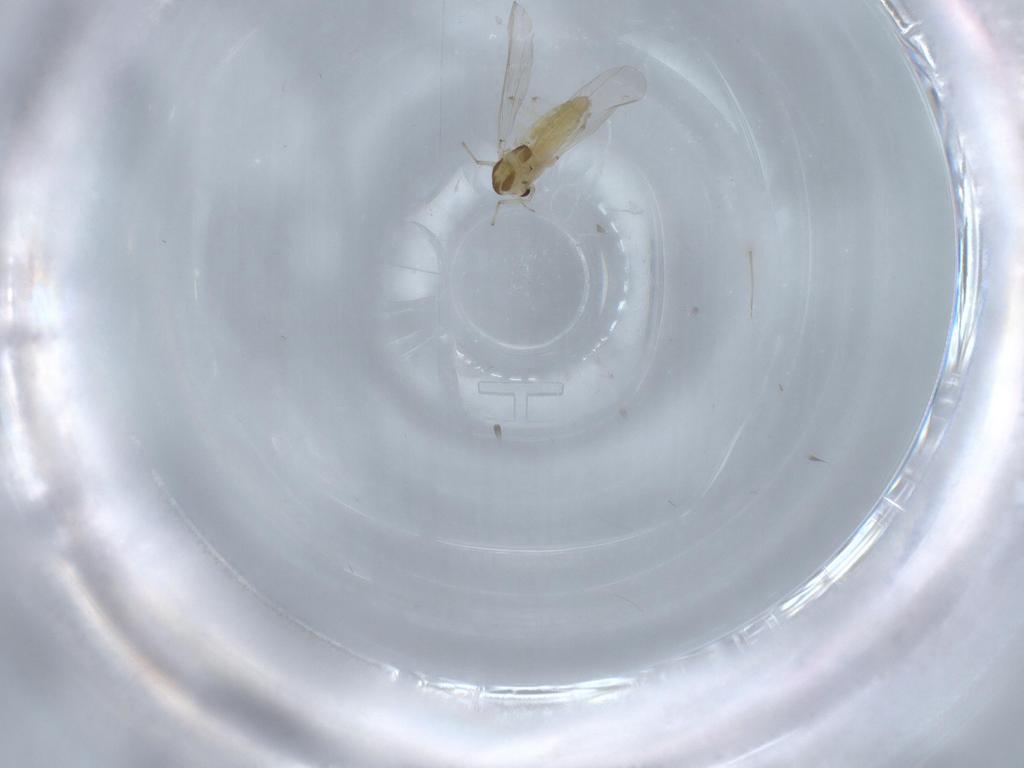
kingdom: Animalia
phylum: Arthropoda
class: Insecta
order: Diptera
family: Chironomidae
